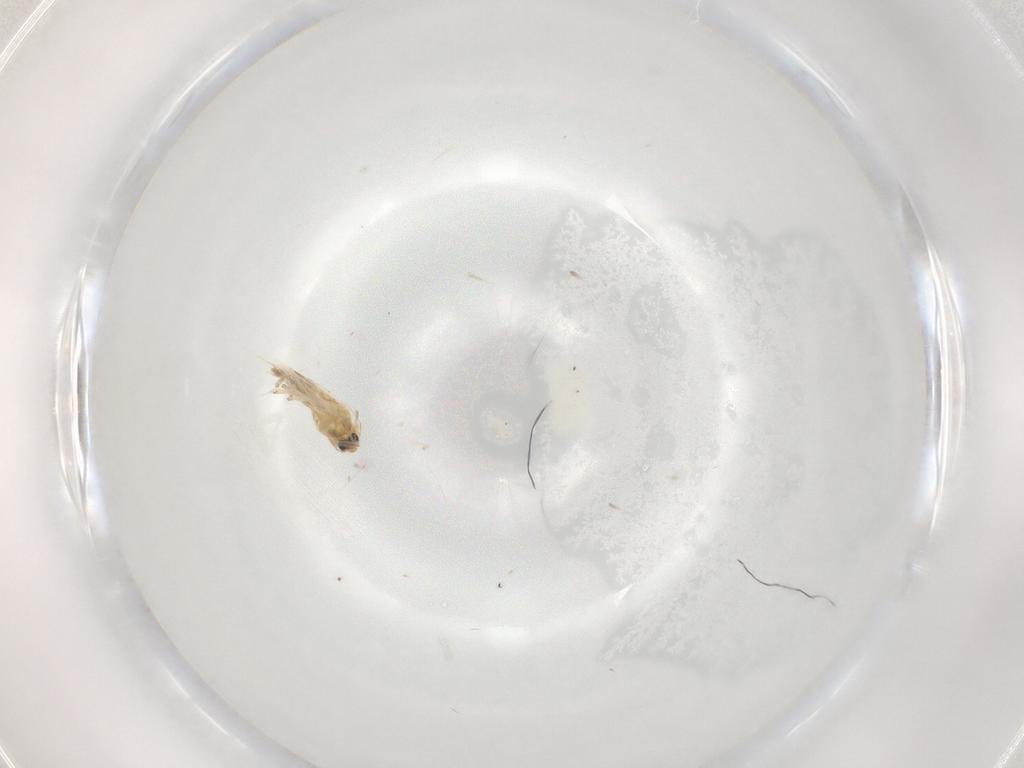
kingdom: Animalia
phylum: Arthropoda
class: Insecta
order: Diptera
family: Chironomidae
